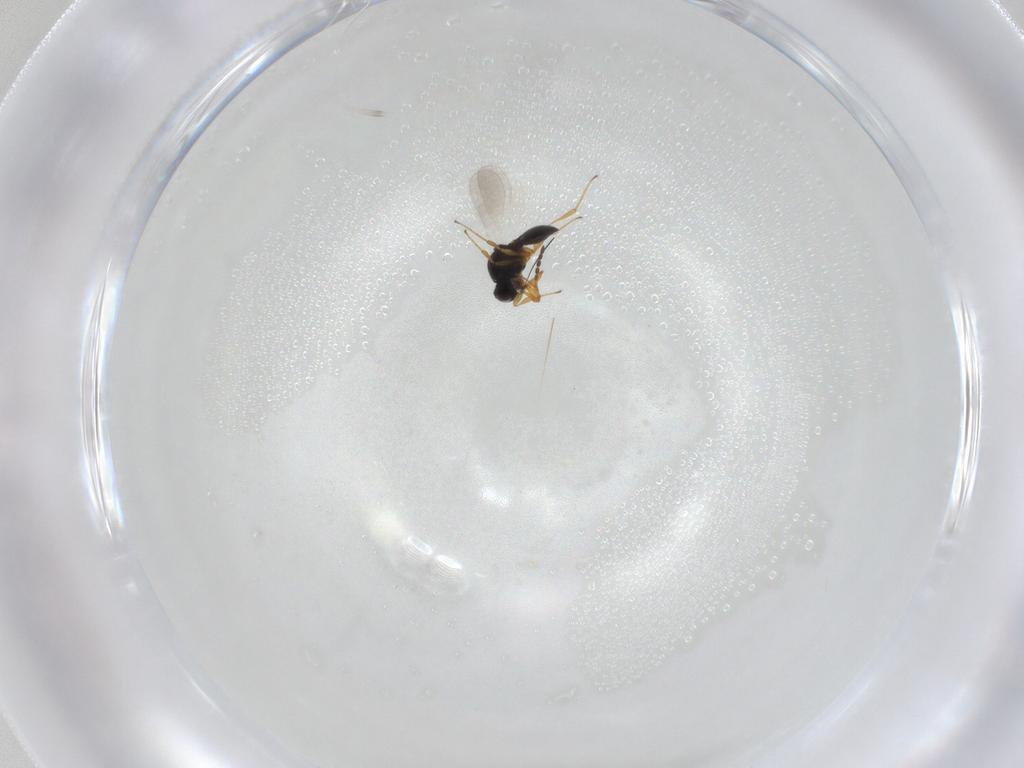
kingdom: Animalia
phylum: Arthropoda
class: Insecta
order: Hymenoptera
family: Platygastridae
